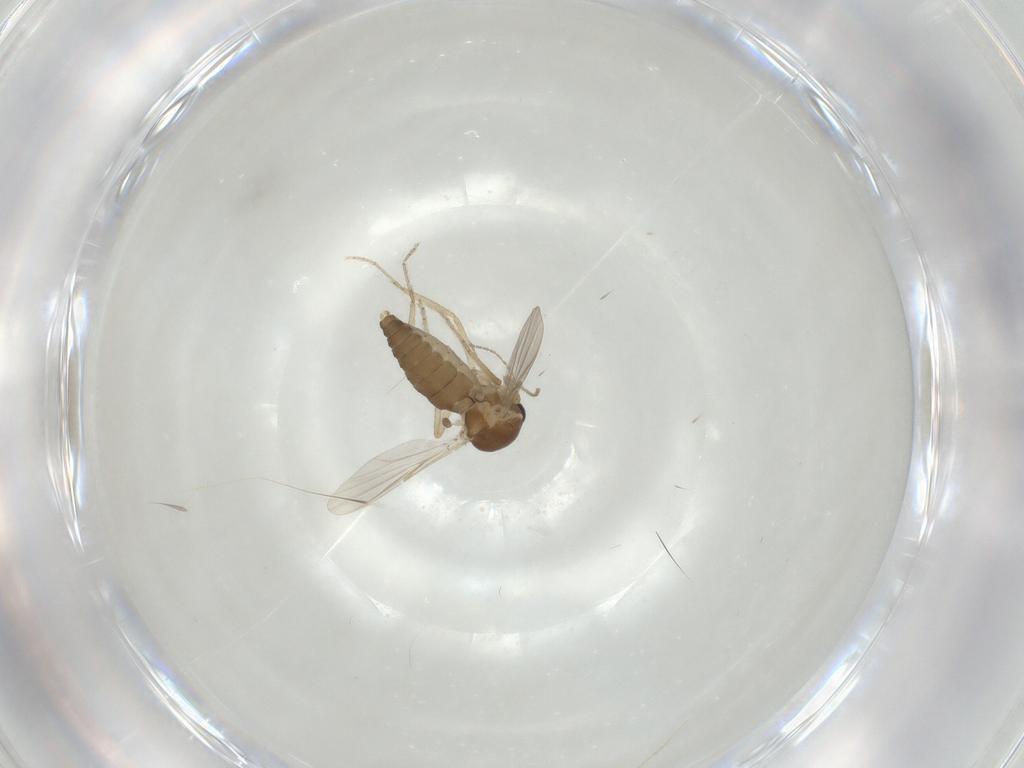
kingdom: Animalia
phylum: Arthropoda
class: Insecta
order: Diptera
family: Ceratopogonidae
